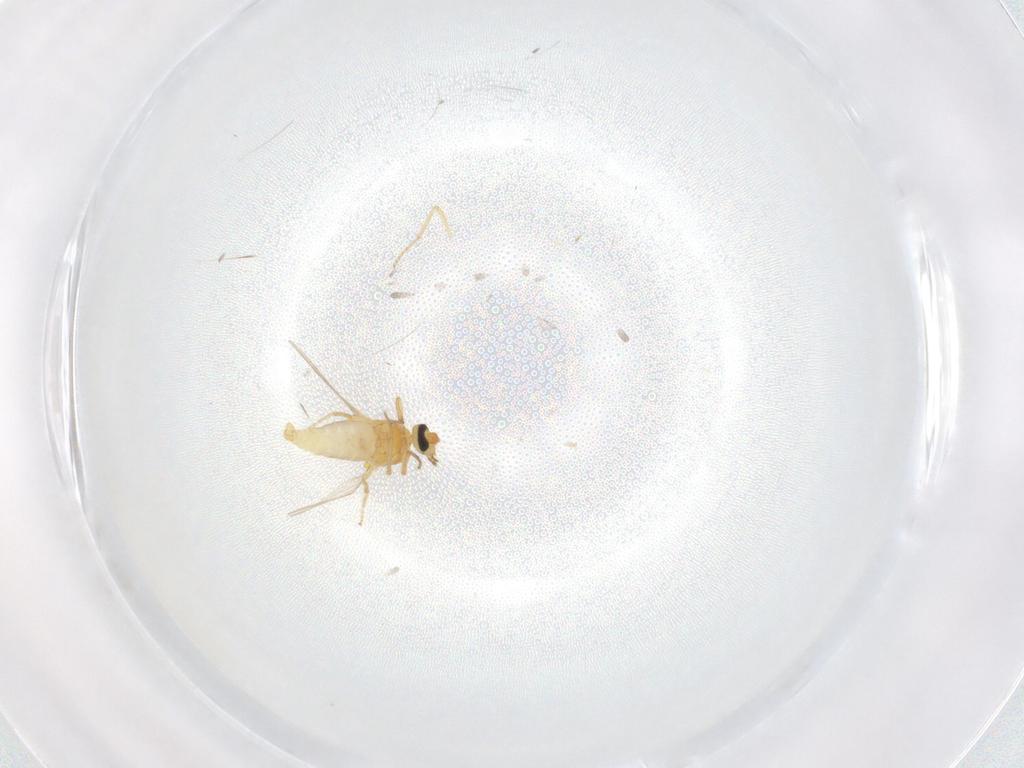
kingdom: Animalia
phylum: Arthropoda
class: Insecta
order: Diptera
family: Ceratopogonidae
